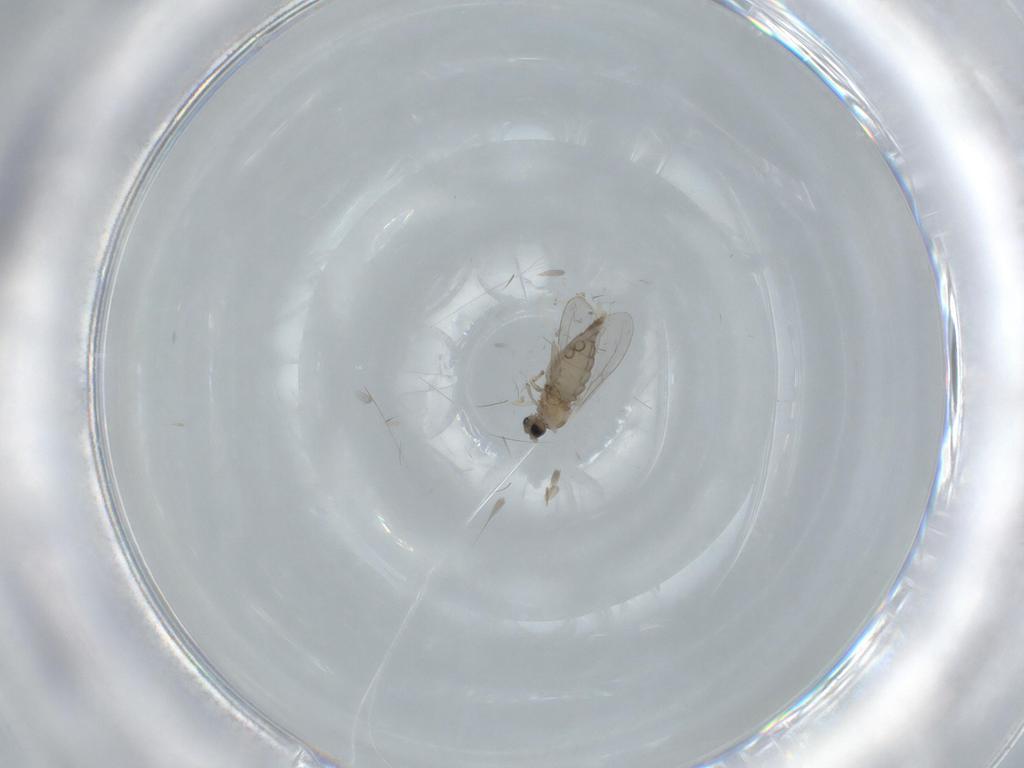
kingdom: Animalia
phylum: Arthropoda
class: Insecta
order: Diptera
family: Cecidomyiidae
